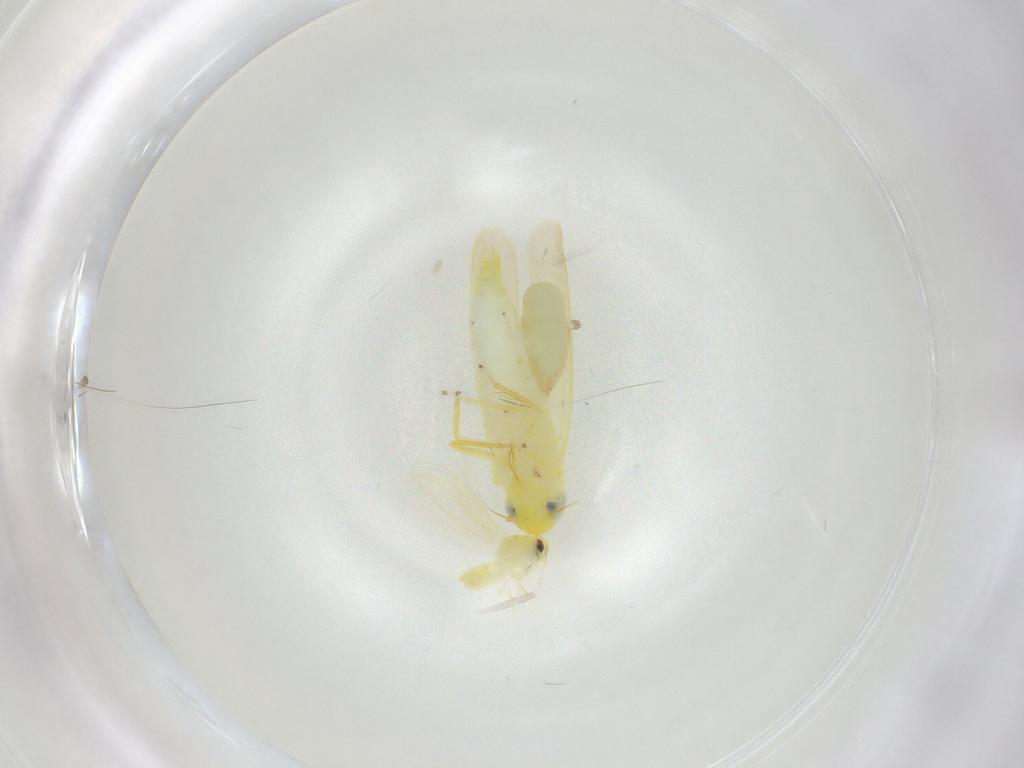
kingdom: Animalia
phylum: Arthropoda
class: Insecta
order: Hemiptera
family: Aleyrodidae
